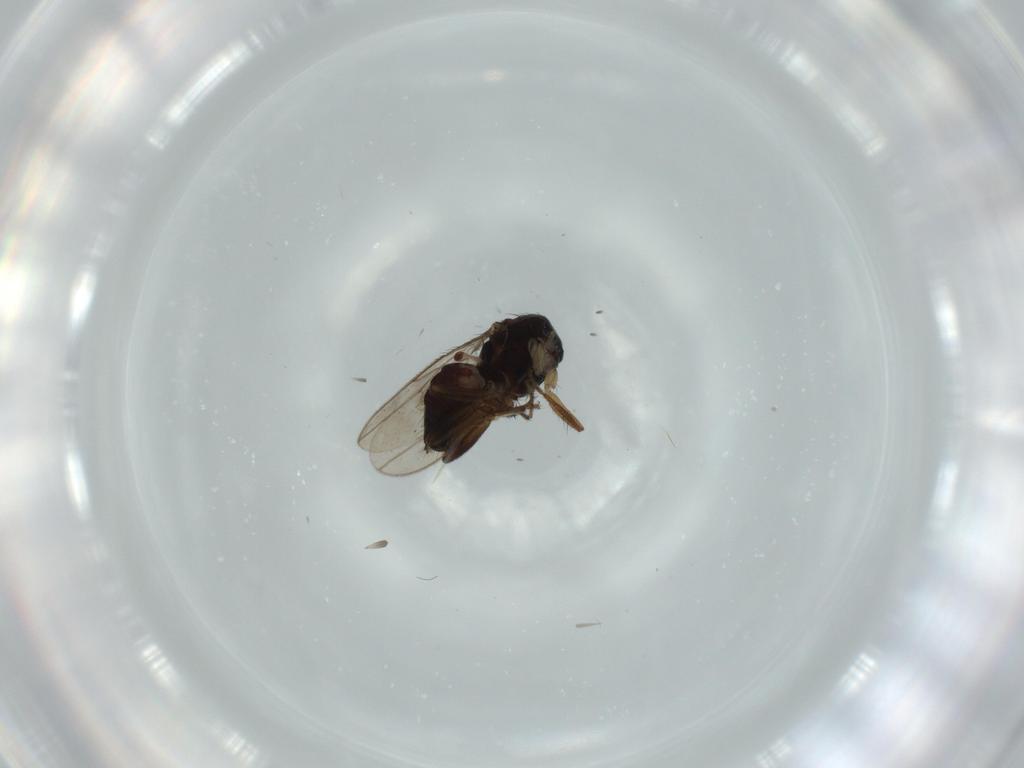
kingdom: Animalia
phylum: Arthropoda
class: Insecta
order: Diptera
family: Sphaeroceridae
